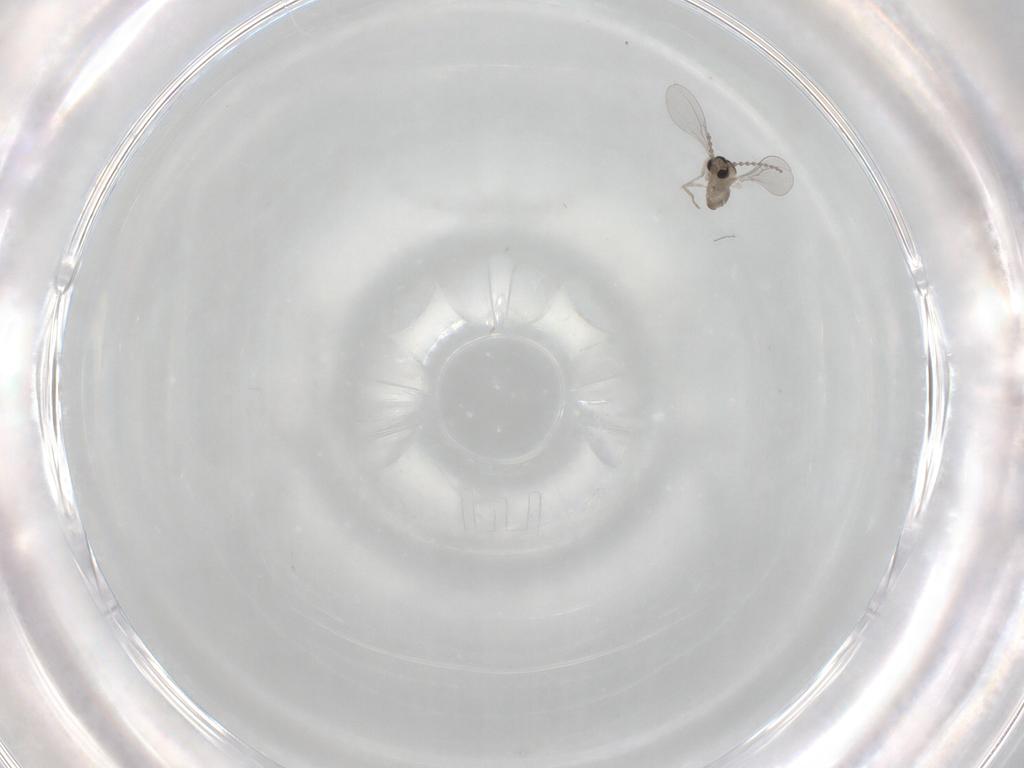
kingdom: Animalia
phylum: Arthropoda
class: Insecta
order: Diptera
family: Sciaridae
